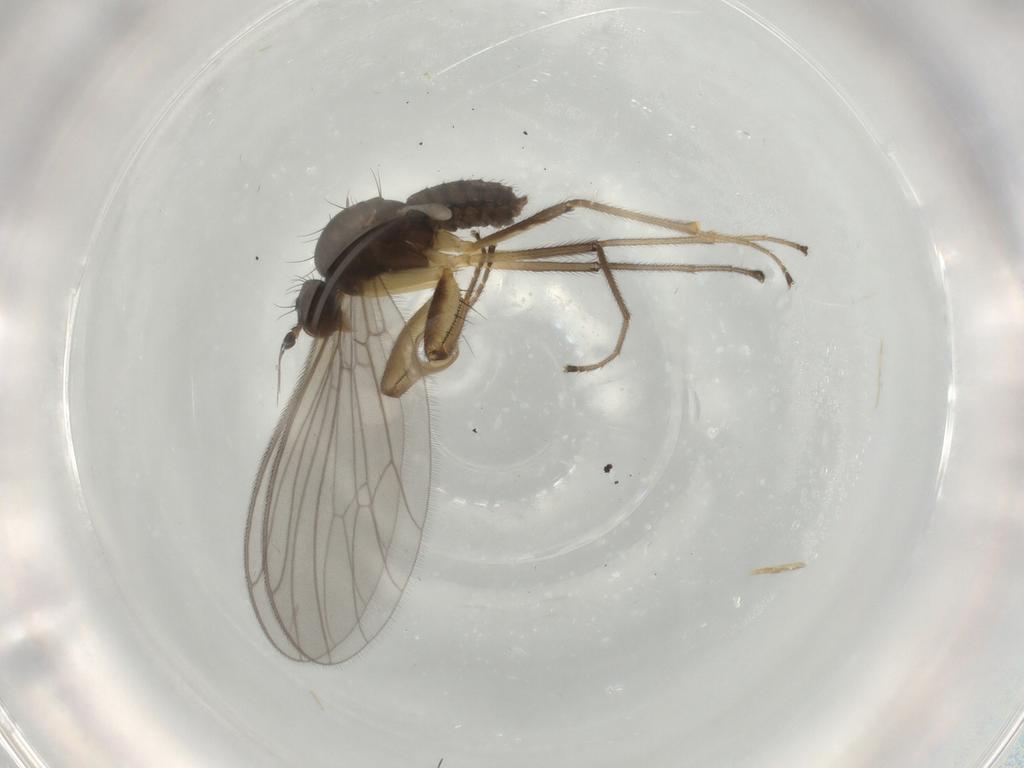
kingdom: Animalia
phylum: Arthropoda
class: Insecta
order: Diptera
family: Empididae
